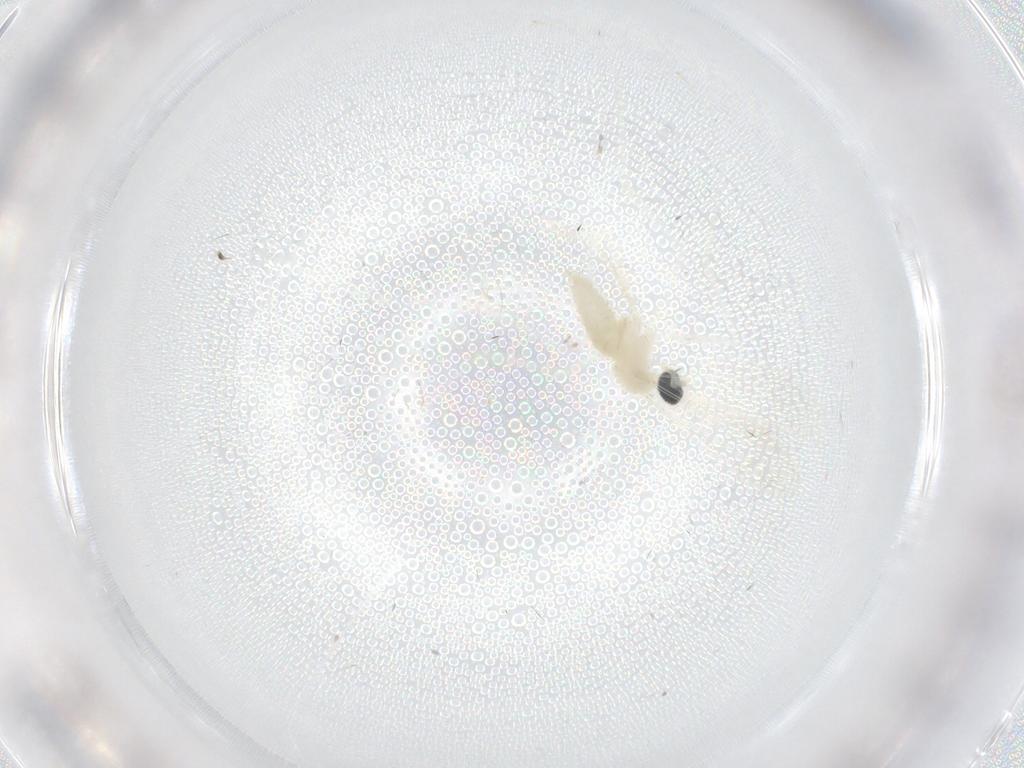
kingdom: Animalia
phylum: Arthropoda
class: Insecta
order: Diptera
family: Cecidomyiidae
